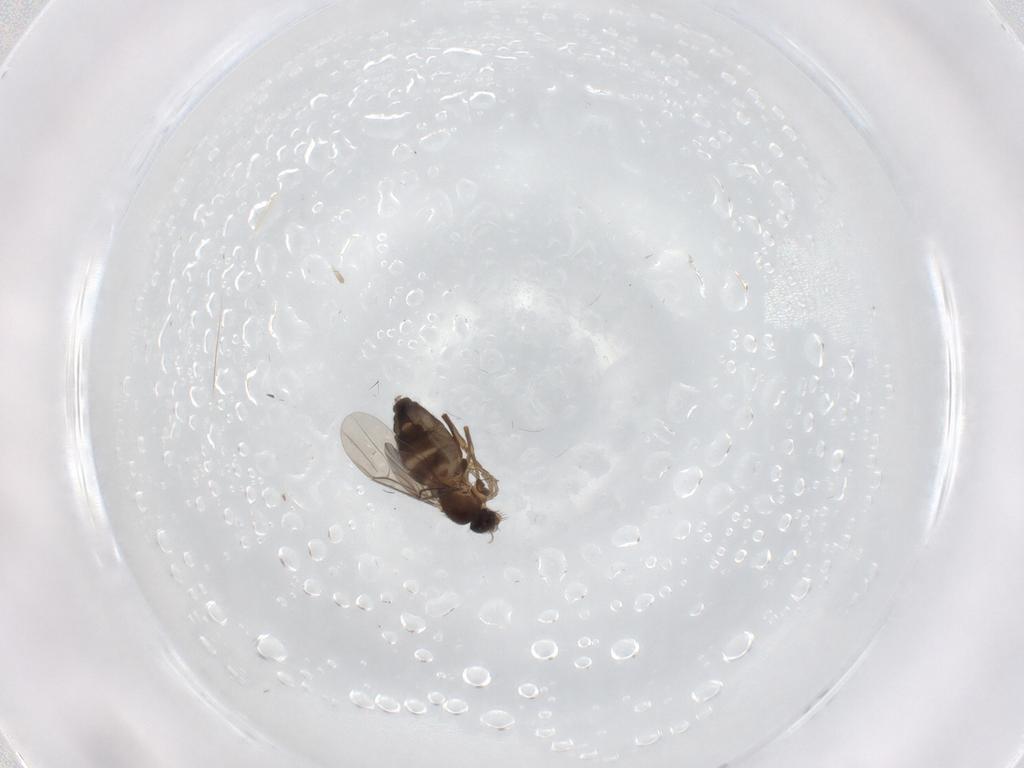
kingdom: Animalia
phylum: Arthropoda
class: Insecta
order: Diptera
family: Phoridae
